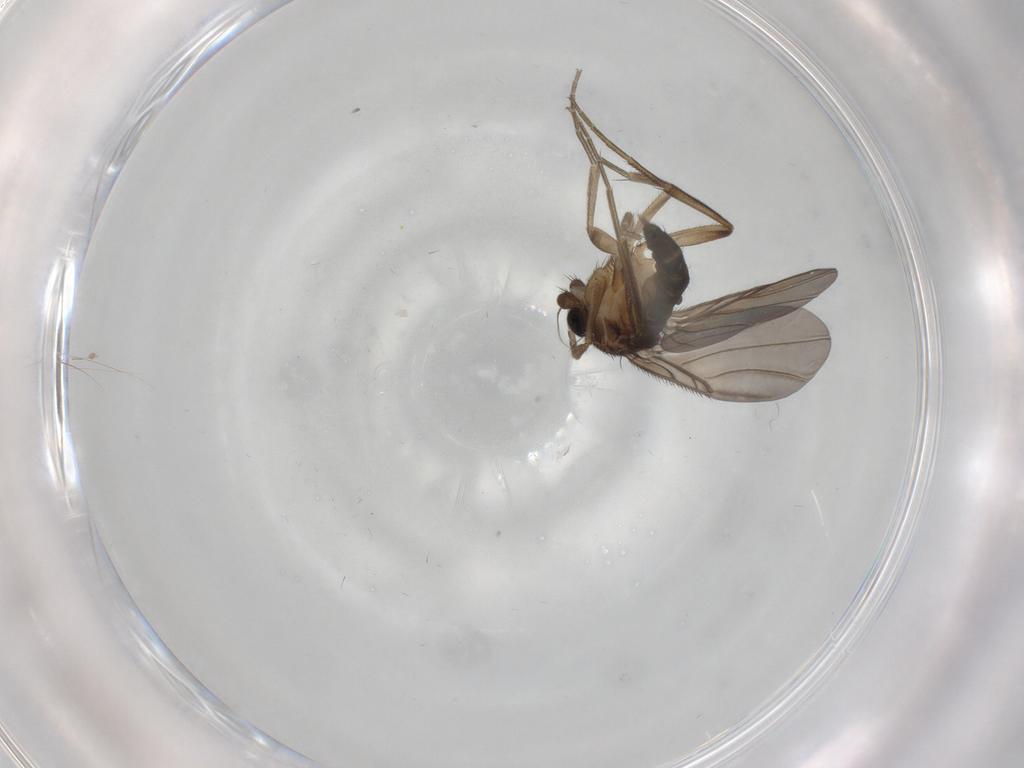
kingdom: Animalia
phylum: Arthropoda
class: Insecta
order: Diptera
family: Phoridae
